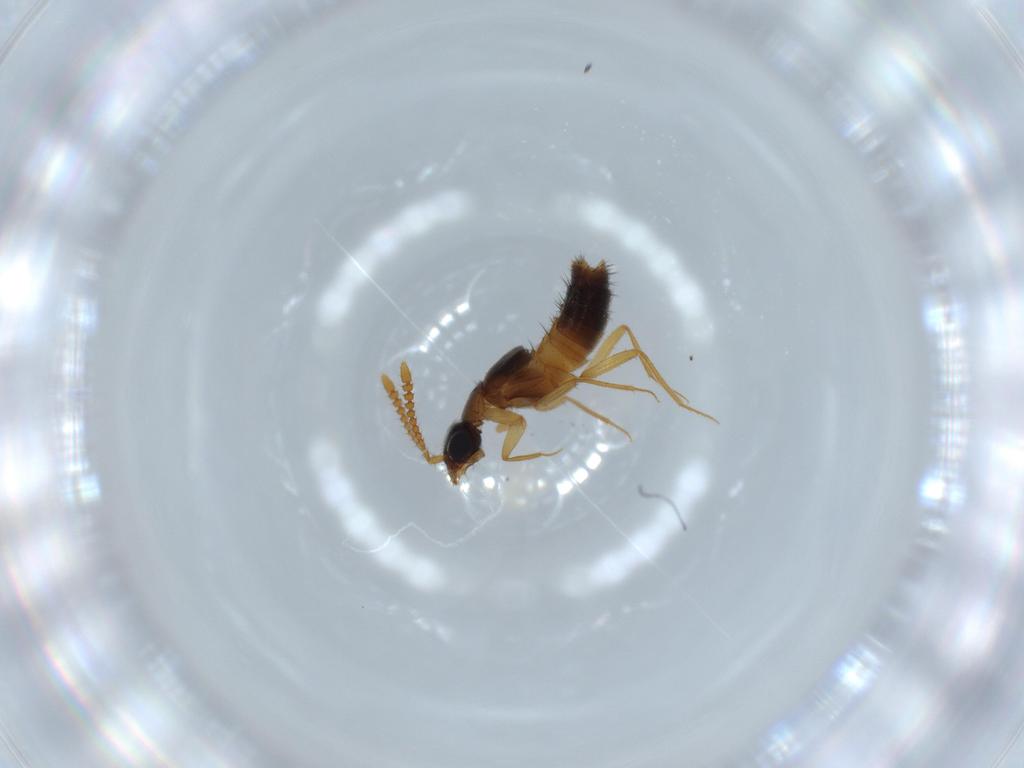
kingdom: Animalia
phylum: Arthropoda
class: Insecta
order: Coleoptera
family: Staphylinidae
